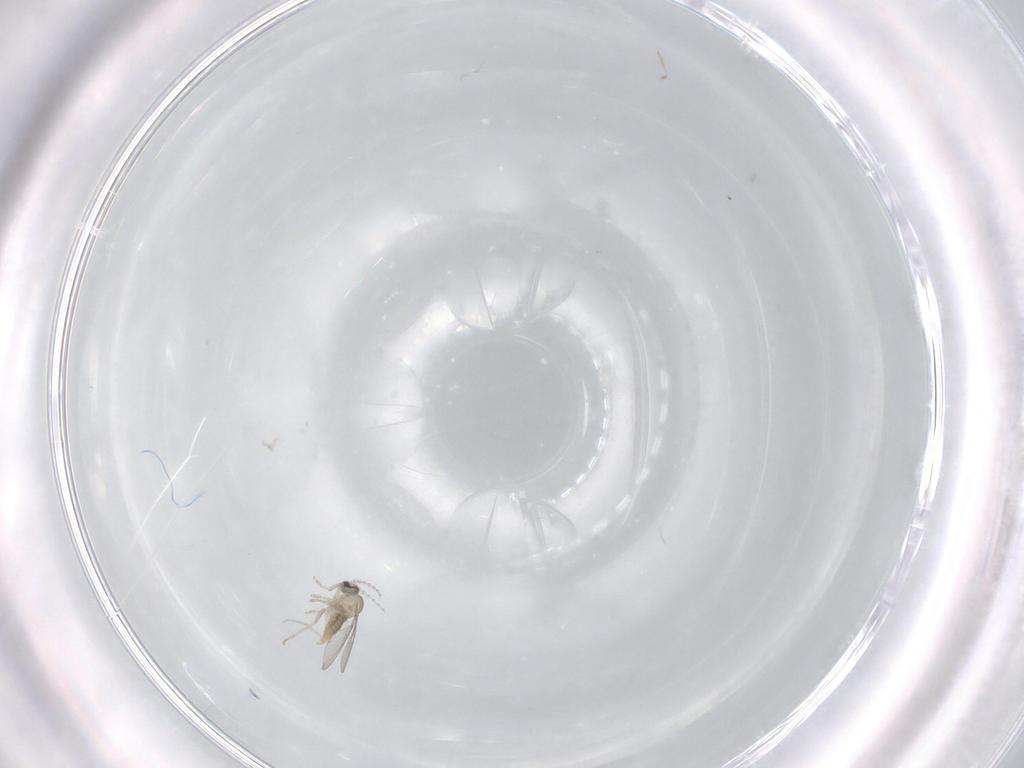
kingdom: Animalia
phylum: Arthropoda
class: Insecta
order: Diptera
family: Cecidomyiidae
